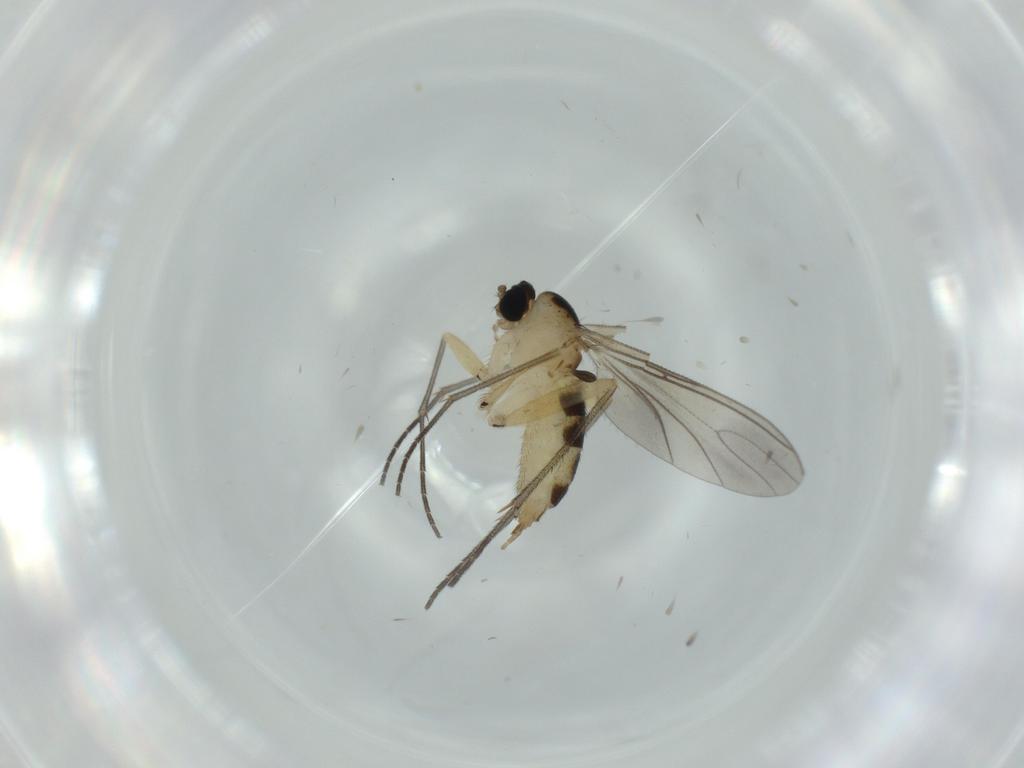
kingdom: Animalia
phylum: Arthropoda
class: Insecta
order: Diptera
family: Sciaridae
